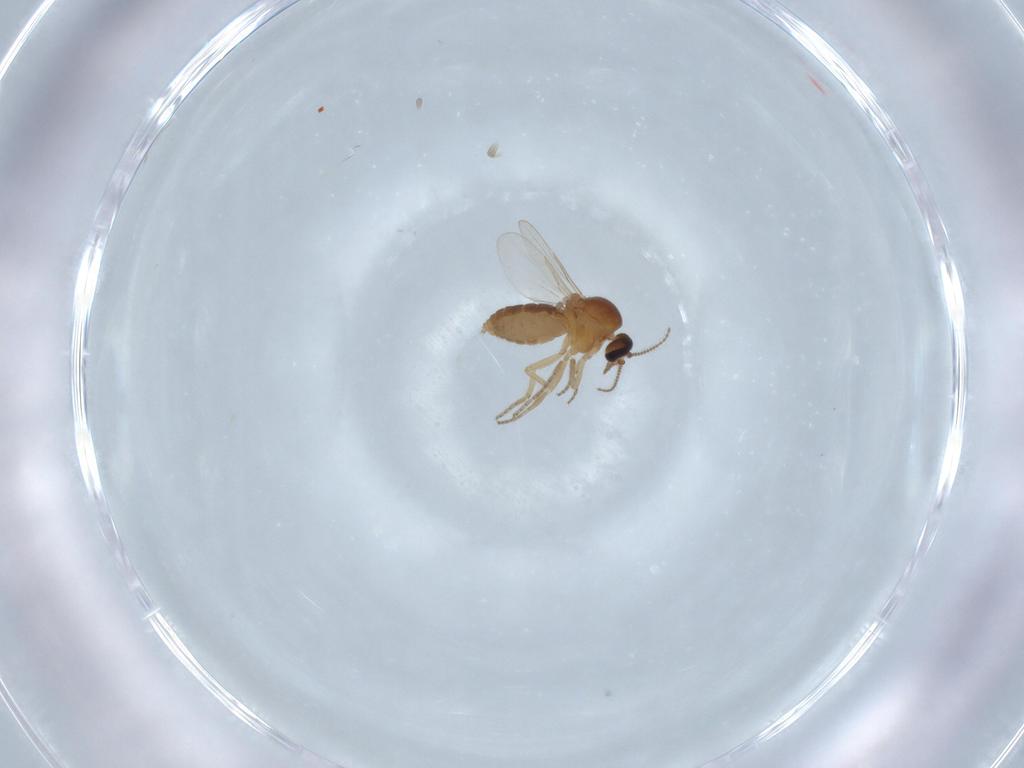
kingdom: Animalia
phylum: Arthropoda
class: Insecta
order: Diptera
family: Ceratopogonidae
